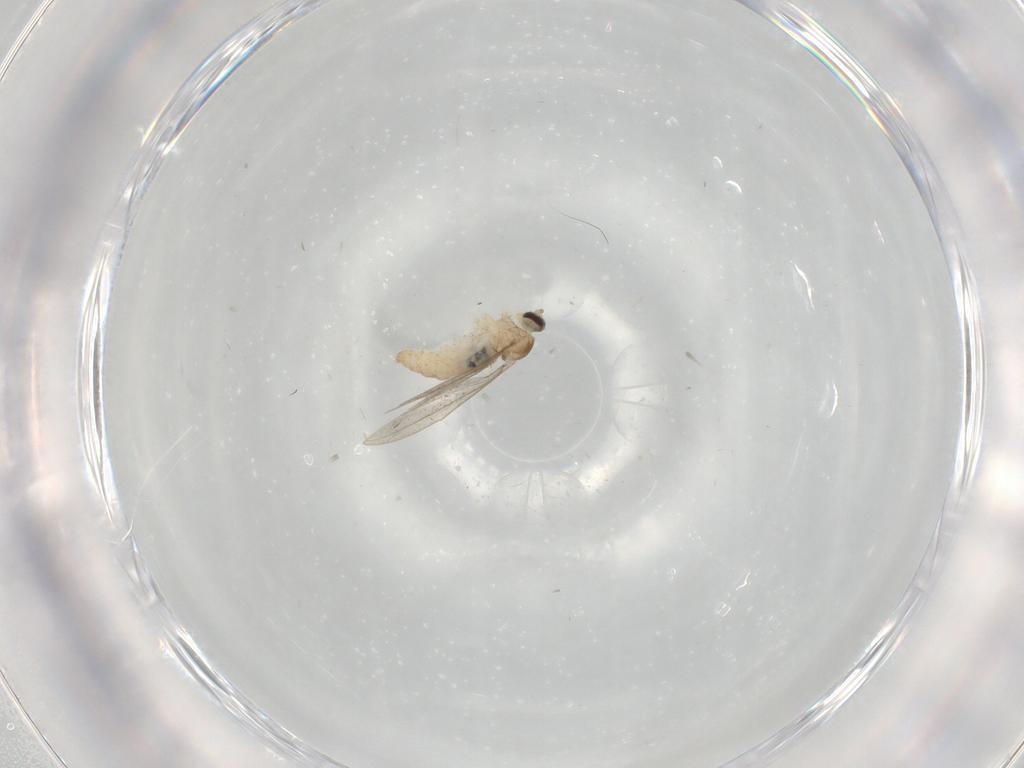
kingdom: Animalia
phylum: Arthropoda
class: Insecta
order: Diptera
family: Cecidomyiidae
